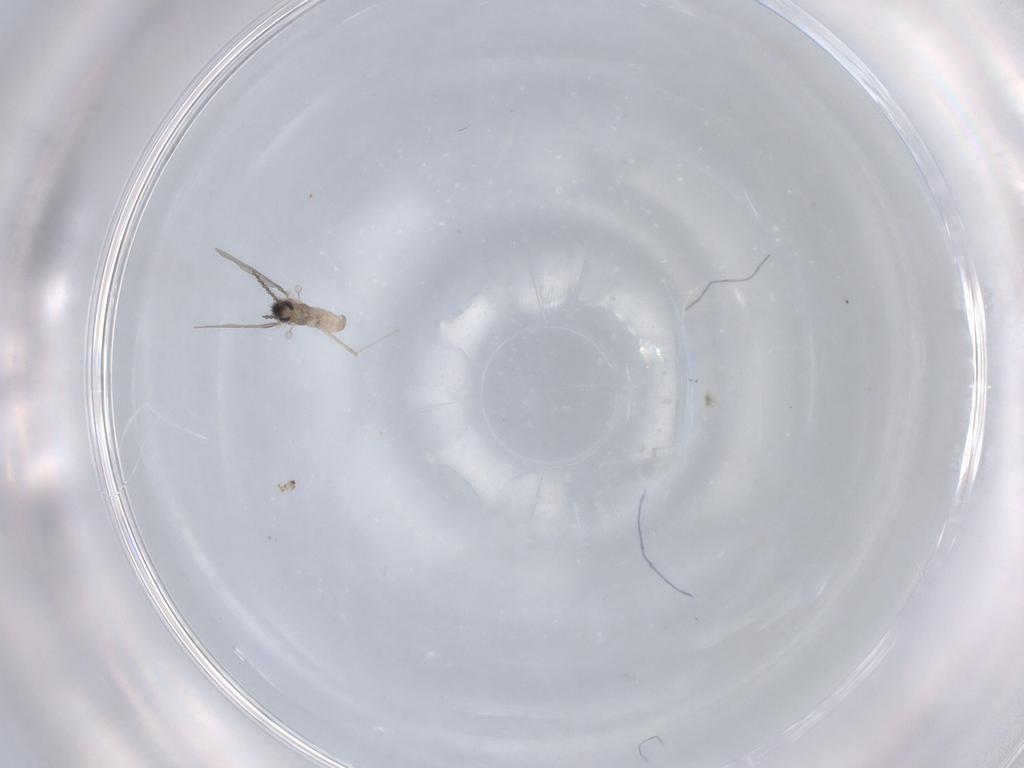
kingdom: Animalia
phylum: Arthropoda
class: Insecta
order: Diptera
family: Cecidomyiidae
